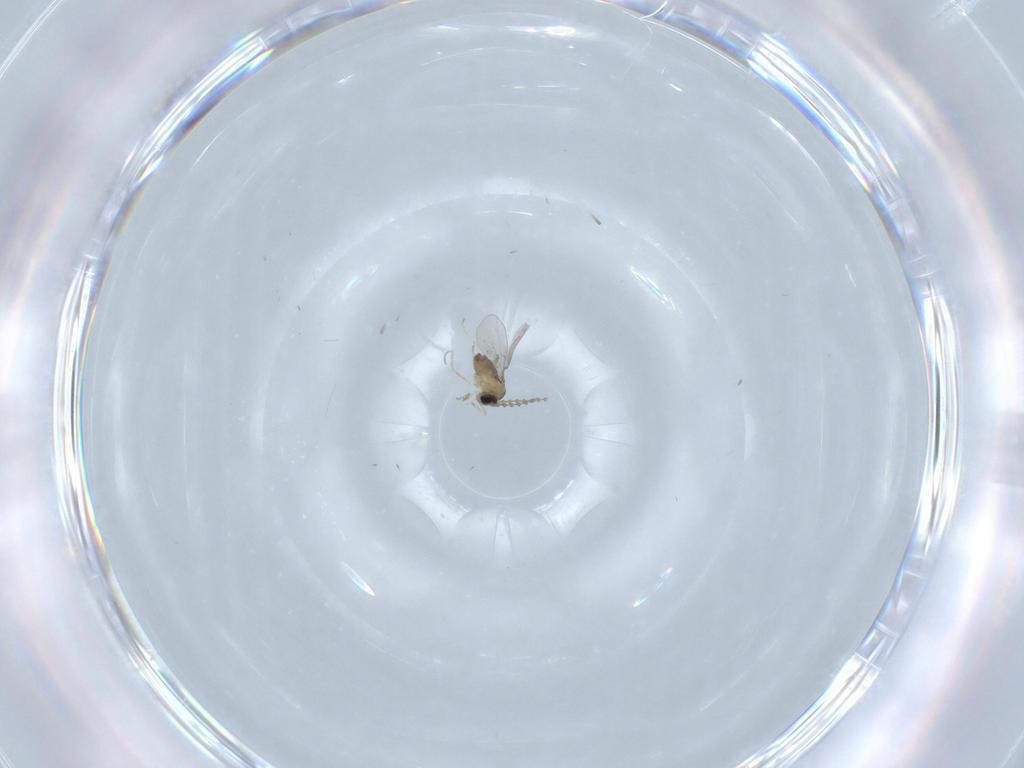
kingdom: Animalia
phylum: Arthropoda
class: Insecta
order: Diptera
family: Cecidomyiidae
